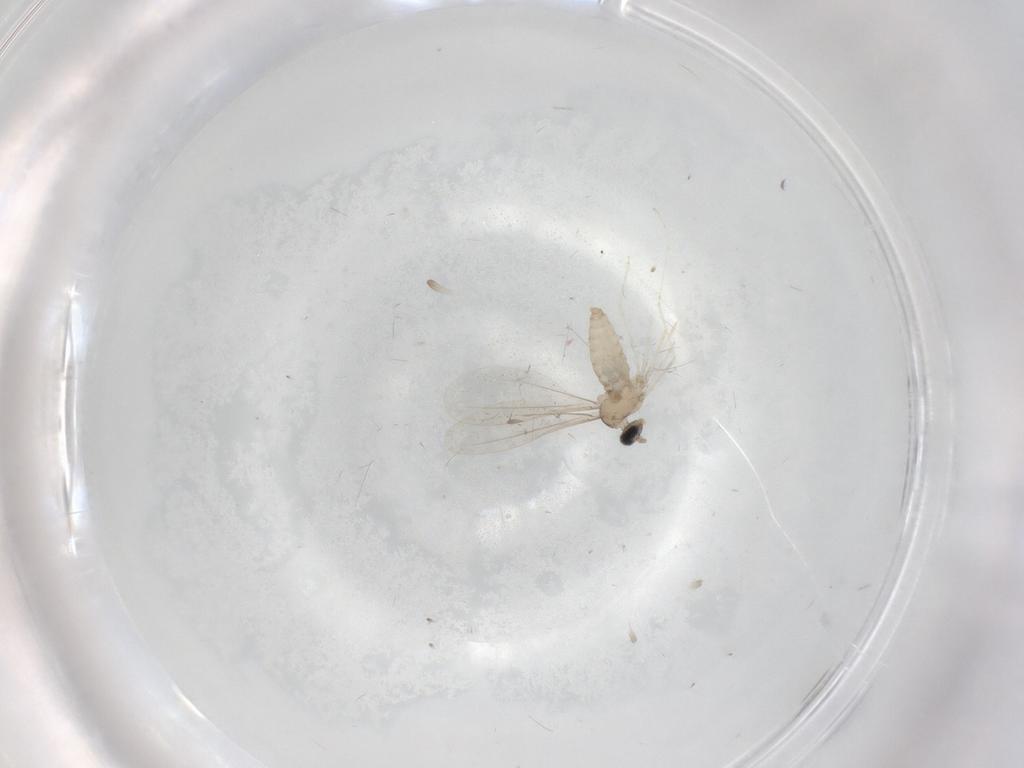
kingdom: Animalia
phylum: Arthropoda
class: Insecta
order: Diptera
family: Cecidomyiidae
